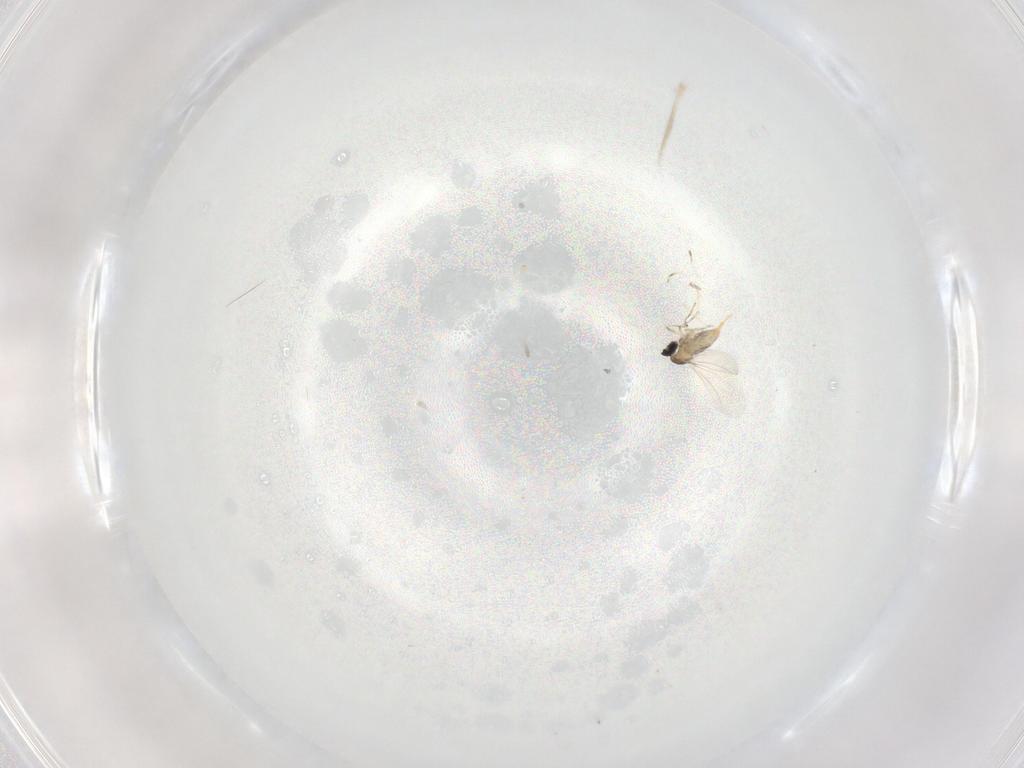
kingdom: Animalia
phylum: Arthropoda
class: Insecta
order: Diptera
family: Cecidomyiidae
